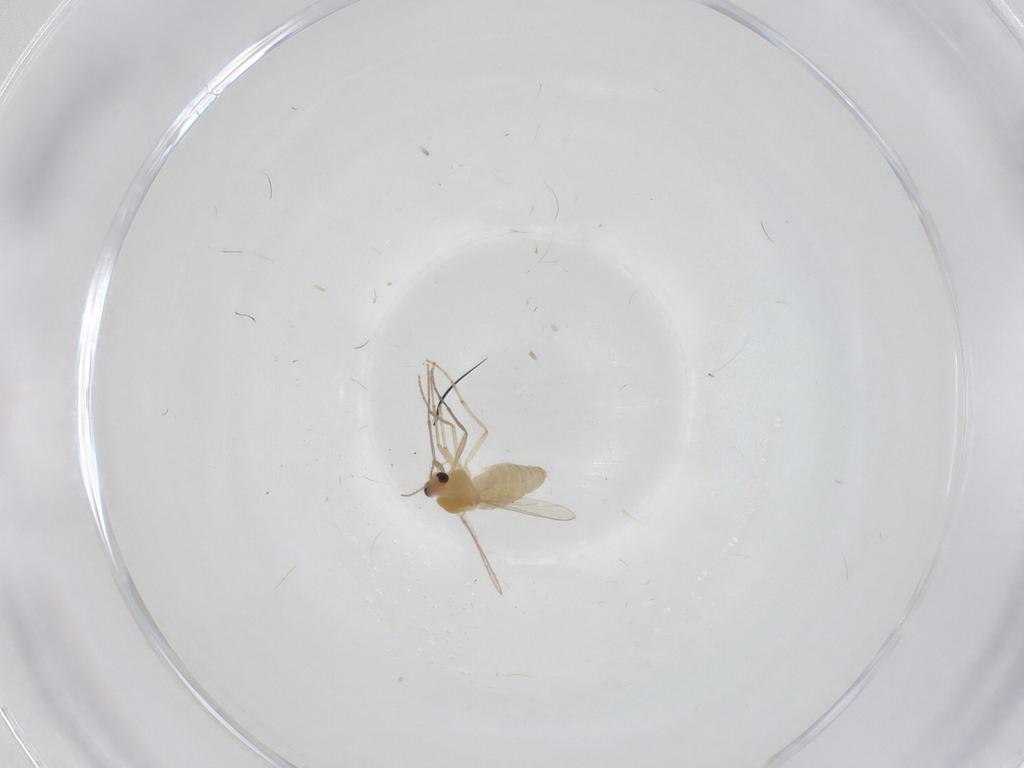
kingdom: Animalia
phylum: Arthropoda
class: Insecta
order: Diptera
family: Chironomidae
